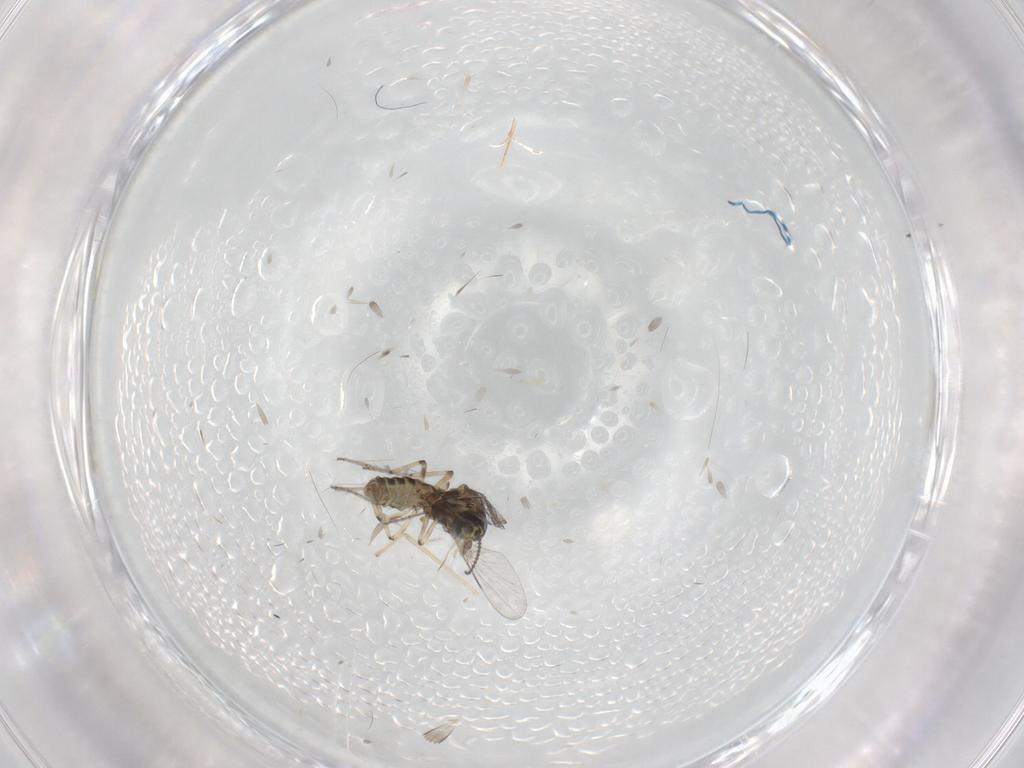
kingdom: Animalia
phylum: Arthropoda
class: Insecta
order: Diptera
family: Ceratopogonidae
